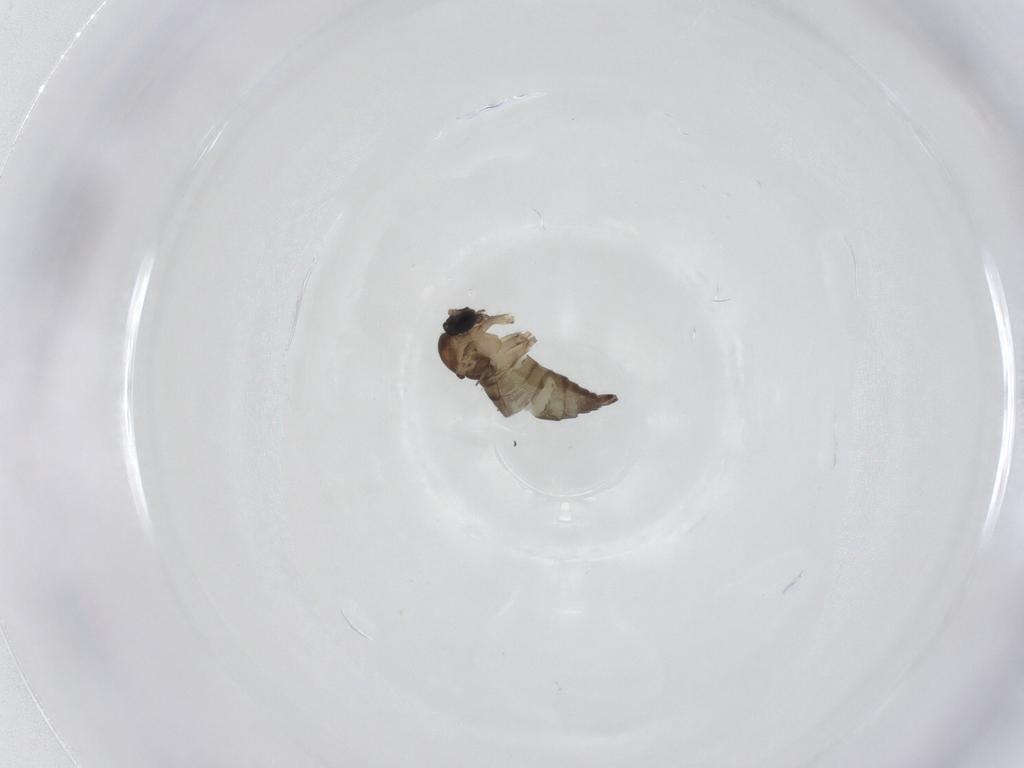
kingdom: Animalia
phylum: Arthropoda
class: Insecta
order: Diptera
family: Sciaridae
